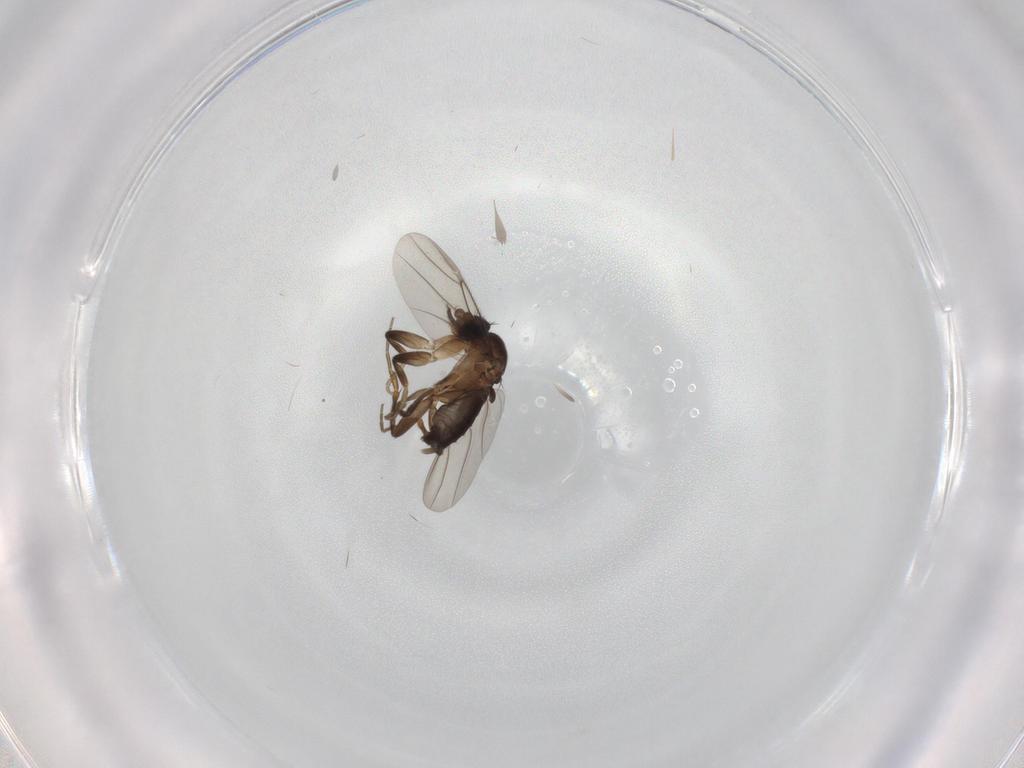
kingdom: Animalia
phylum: Arthropoda
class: Insecta
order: Diptera
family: Phoridae
